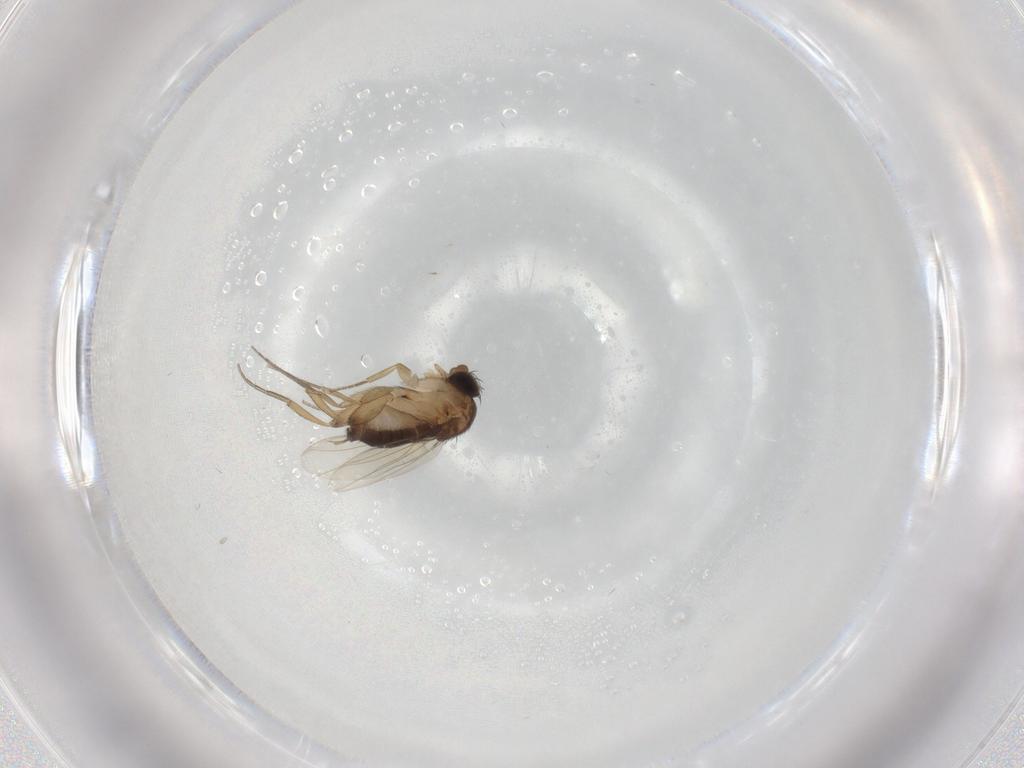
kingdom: Animalia
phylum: Arthropoda
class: Insecta
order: Diptera
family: Phoridae
